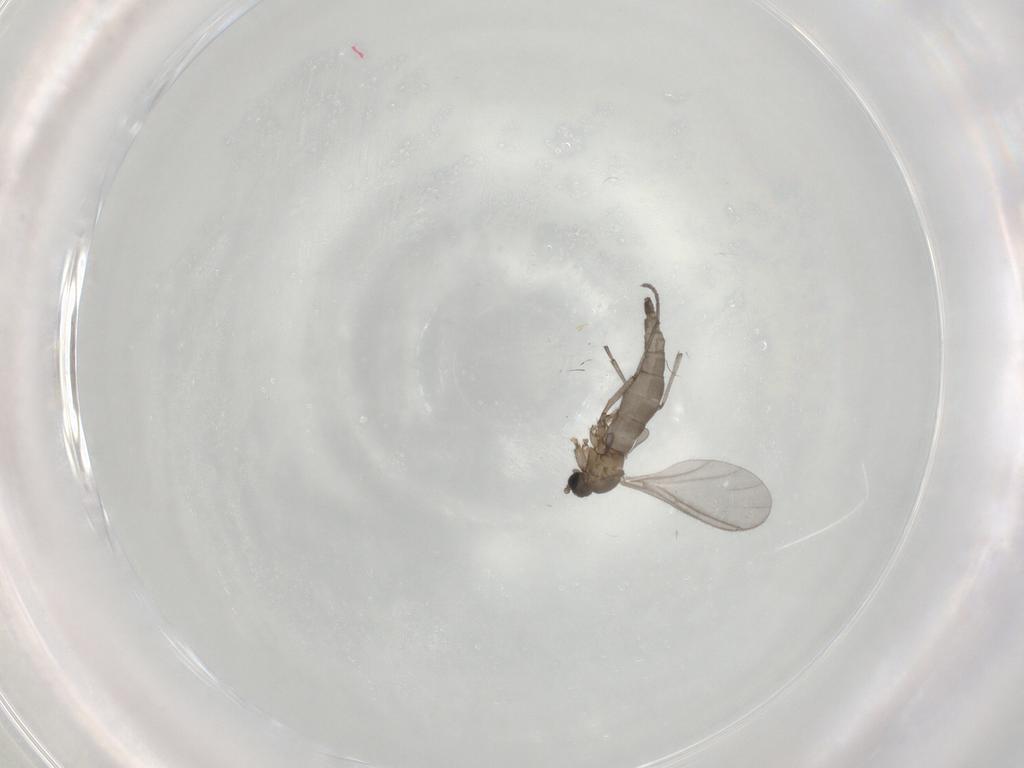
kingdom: Animalia
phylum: Arthropoda
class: Insecta
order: Diptera
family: Sciaridae
